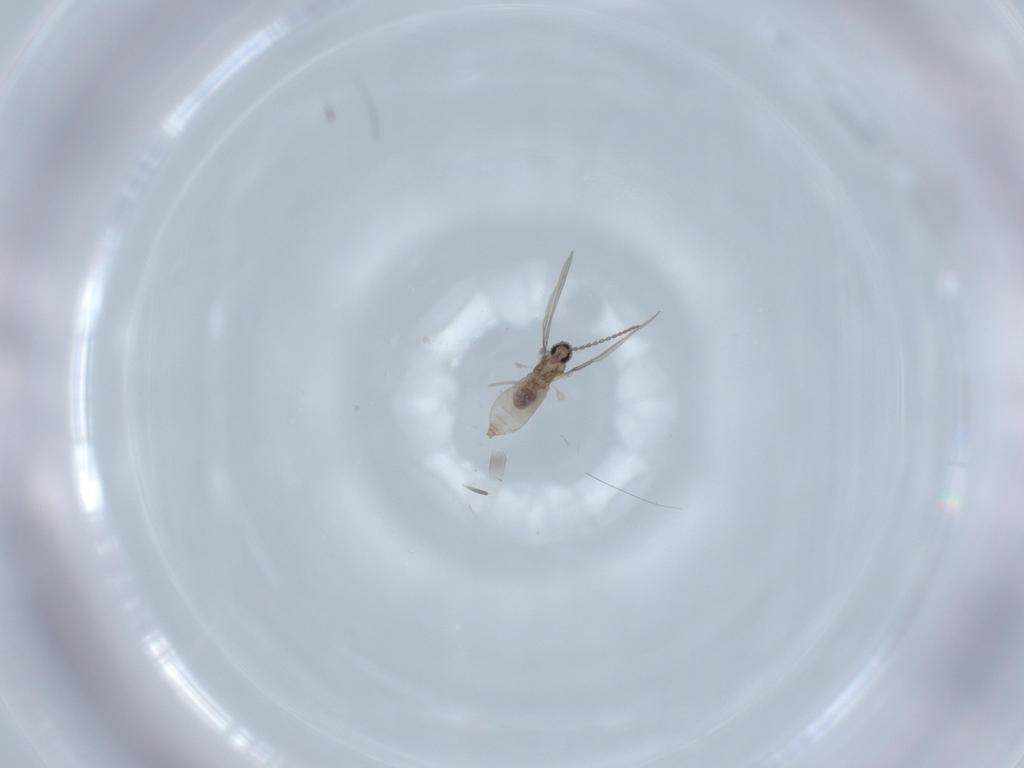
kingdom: Animalia
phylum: Arthropoda
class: Insecta
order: Diptera
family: Cecidomyiidae
